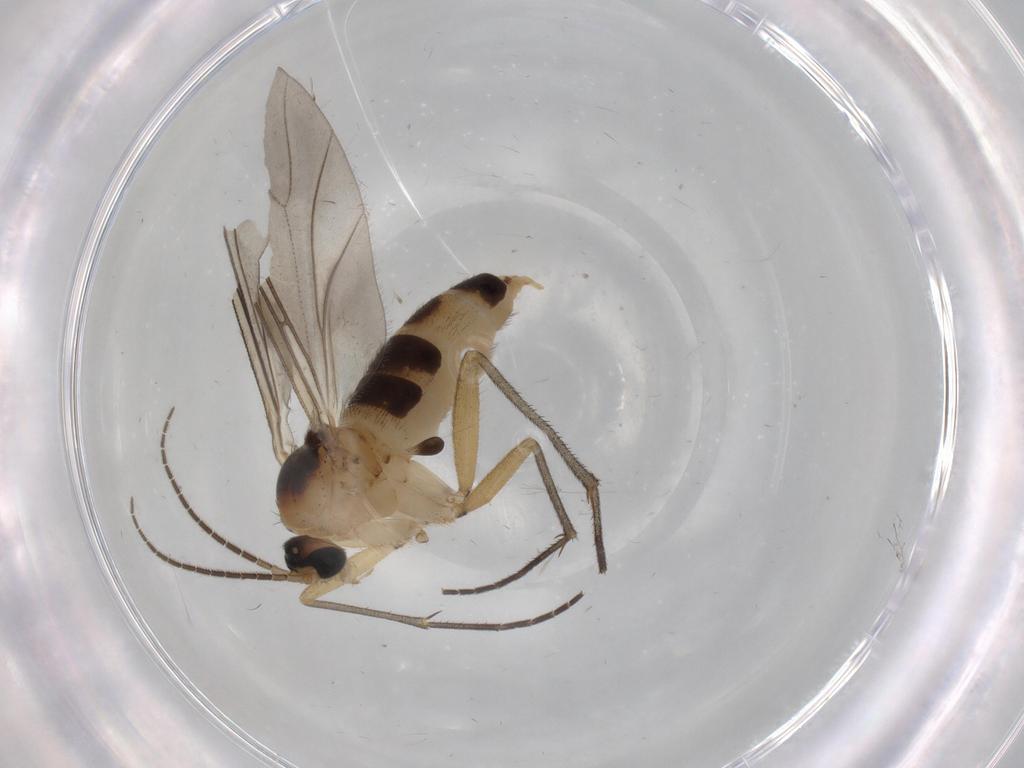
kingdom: Animalia
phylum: Arthropoda
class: Insecta
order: Diptera
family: Sciaridae
